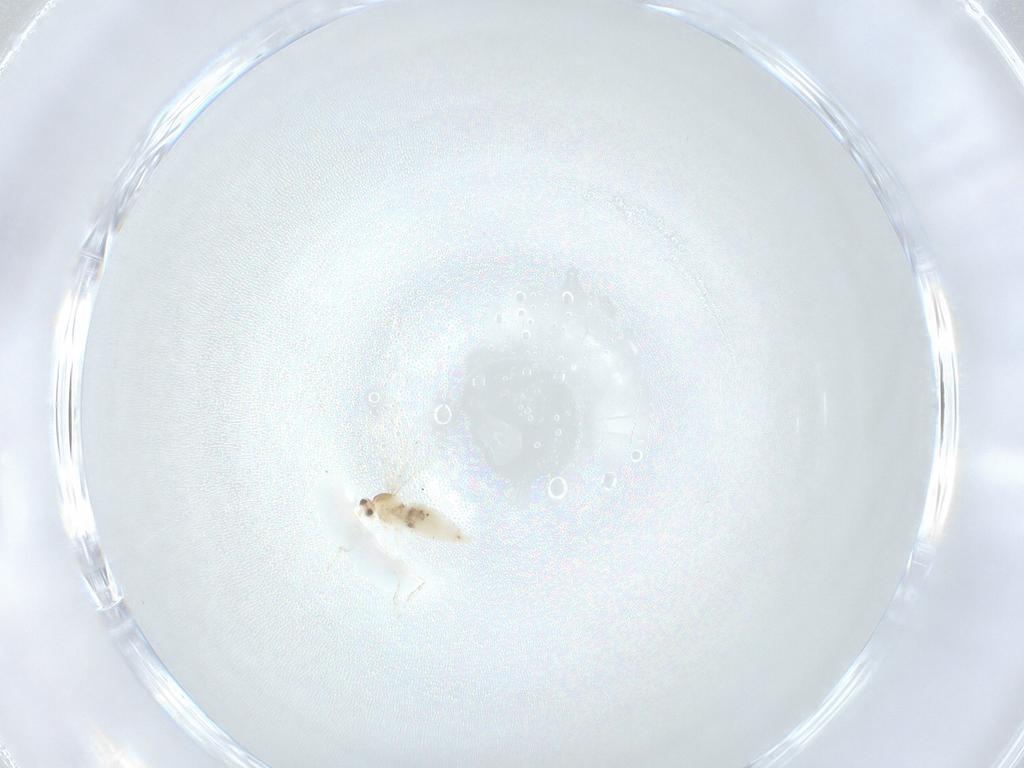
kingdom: Animalia
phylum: Arthropoda
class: Insecta
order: Diptera
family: Cecidomyiidae
